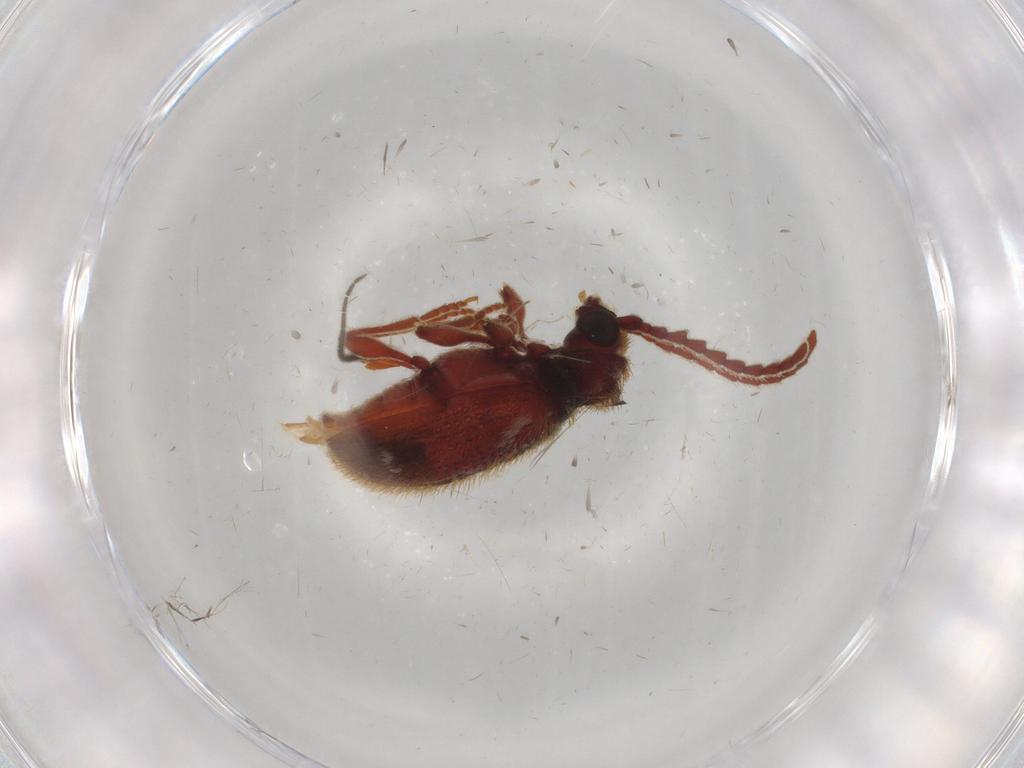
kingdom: Animalia
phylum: Arthropoda
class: Insecta
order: Coleoptera
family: Ptinidae
